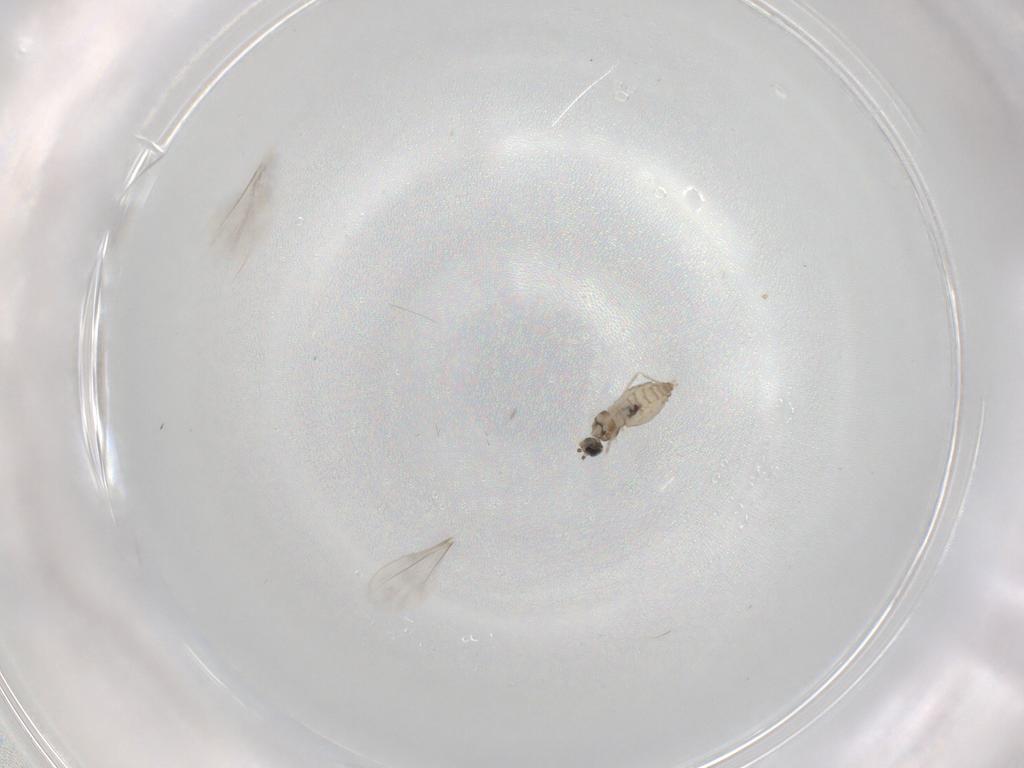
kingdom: Animalia
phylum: Arthropoda
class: Insecta
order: Diptera
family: Cecidomyiidae
